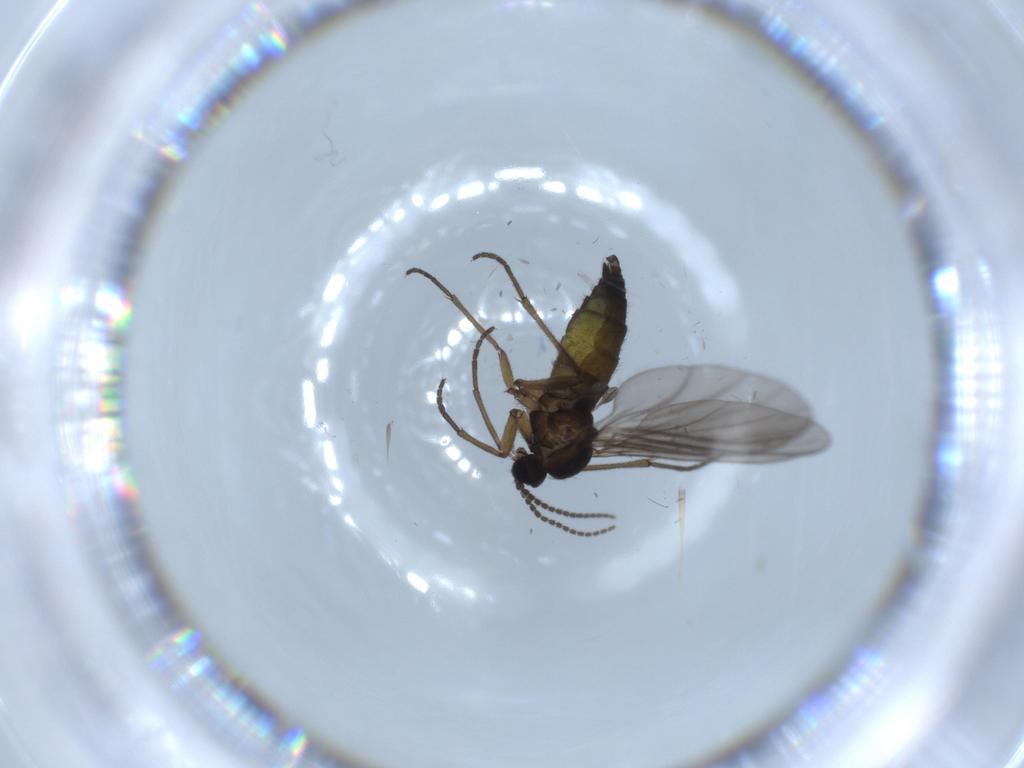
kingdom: Animalia
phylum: Arthropoda
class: Insecta
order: Diptera
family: Sciaridae
